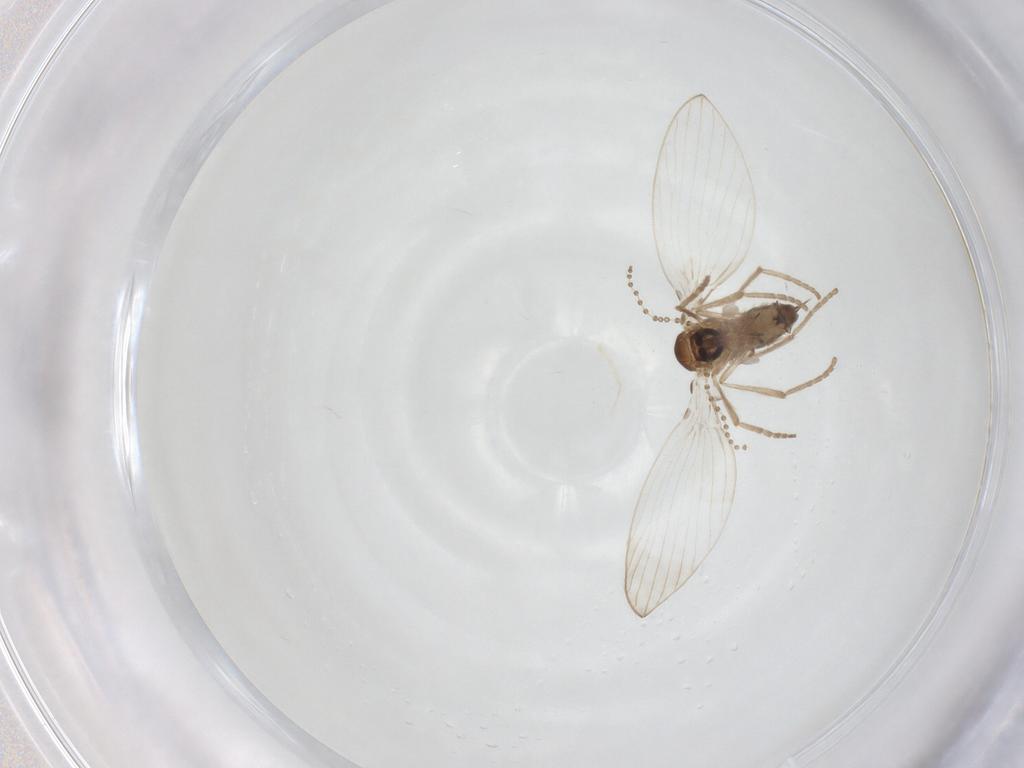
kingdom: Animalia
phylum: Arthropoda
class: Insecta
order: Diptera
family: Psychodidae
